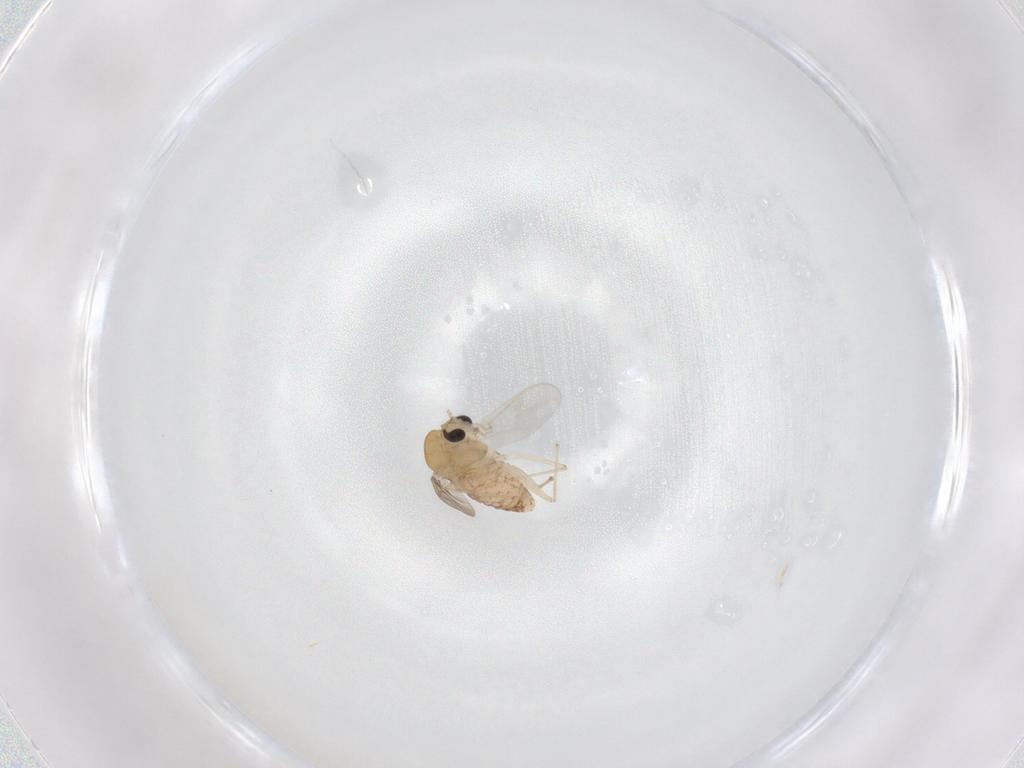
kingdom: Animalia
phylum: Arthropoda
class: Insecta
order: Diptera
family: Chironomidae
